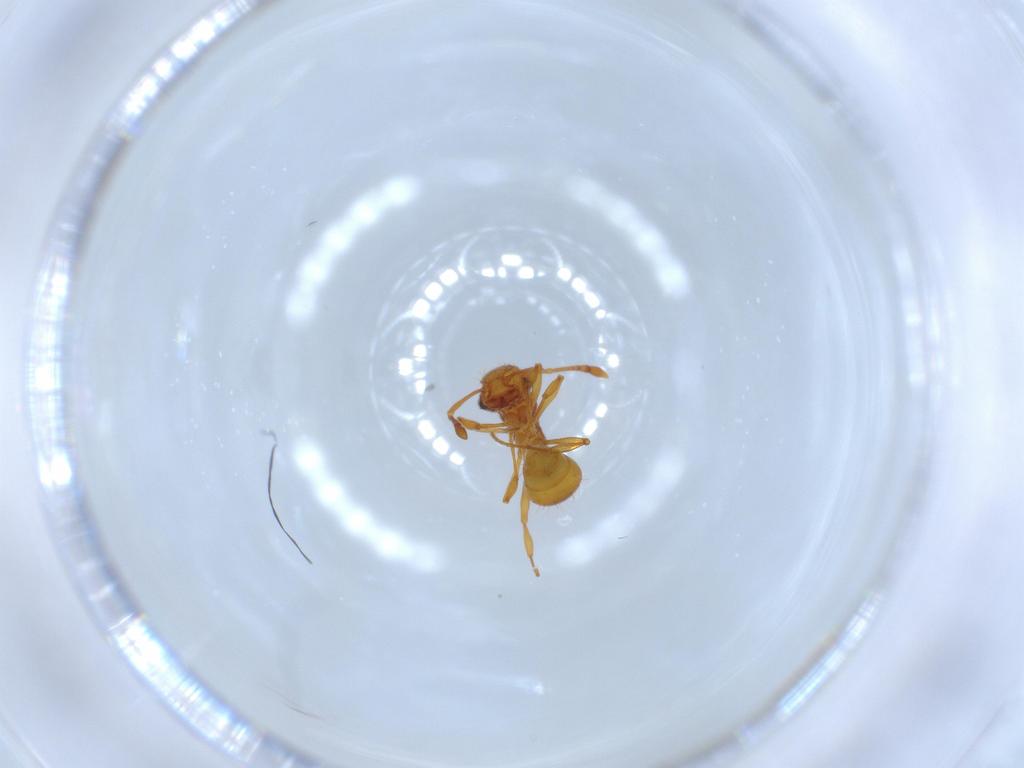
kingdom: Animalia
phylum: Arthropoda
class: Insecta
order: Hymenoptera
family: Formicidae
